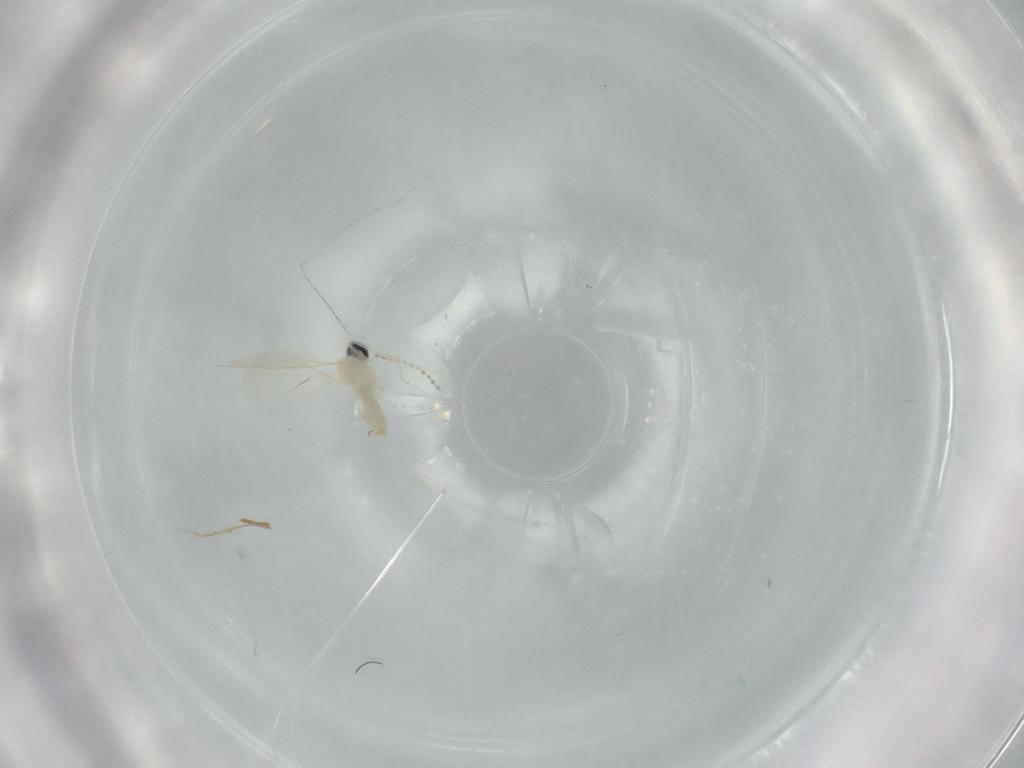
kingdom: Animalia
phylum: Arthropoda
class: Insecta
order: Diptera
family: Cecidomyiidae
